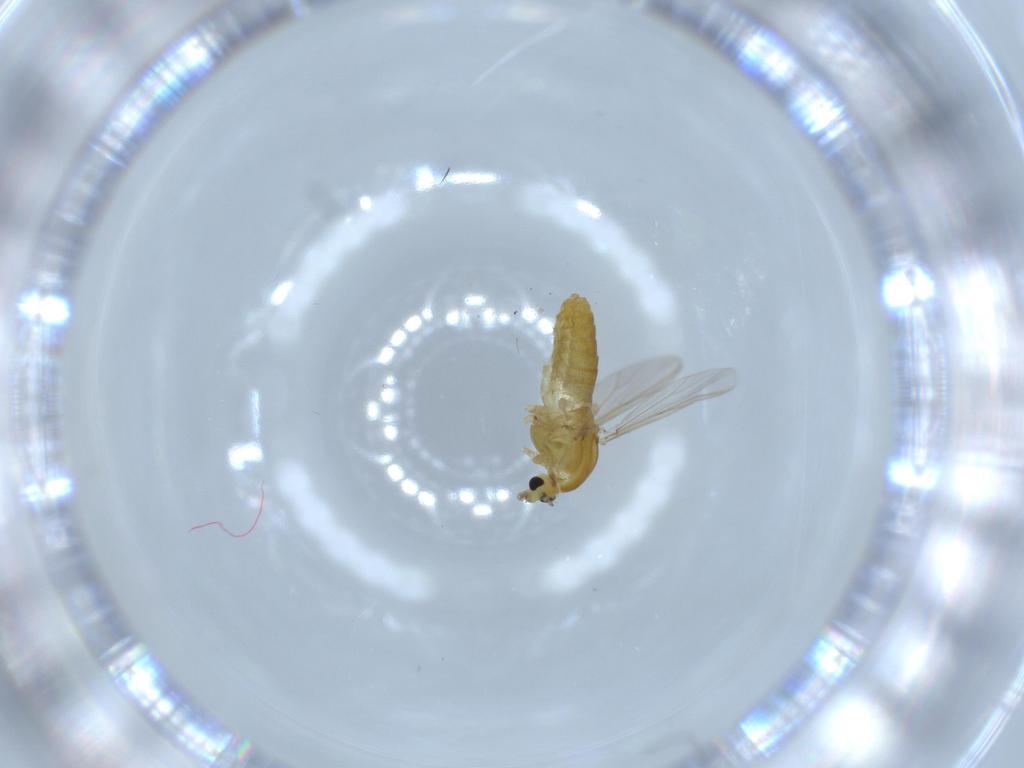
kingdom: Animalia
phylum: Arthropoda
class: Insecta
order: Diptera
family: Chironomidae
